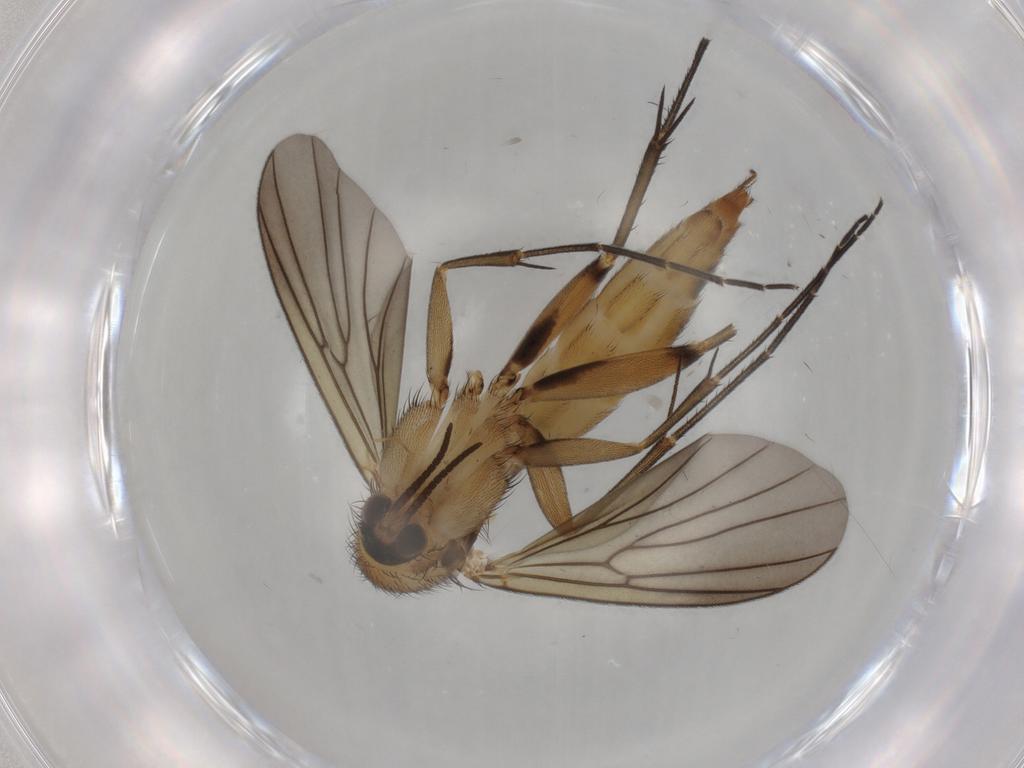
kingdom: Animalia
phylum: Arthropoda
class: Insecta
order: Diptera
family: Mycetophilidae
